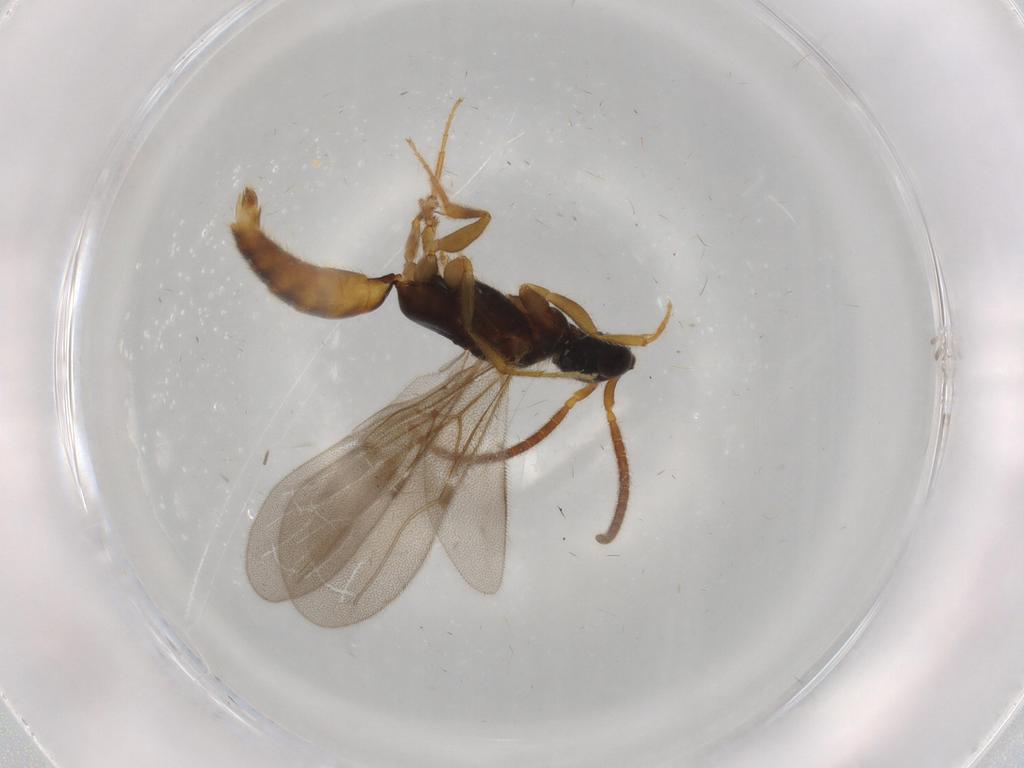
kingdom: Animalia
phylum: Arthropoda
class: Insecta
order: Hymenoptera
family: Bethylidae
